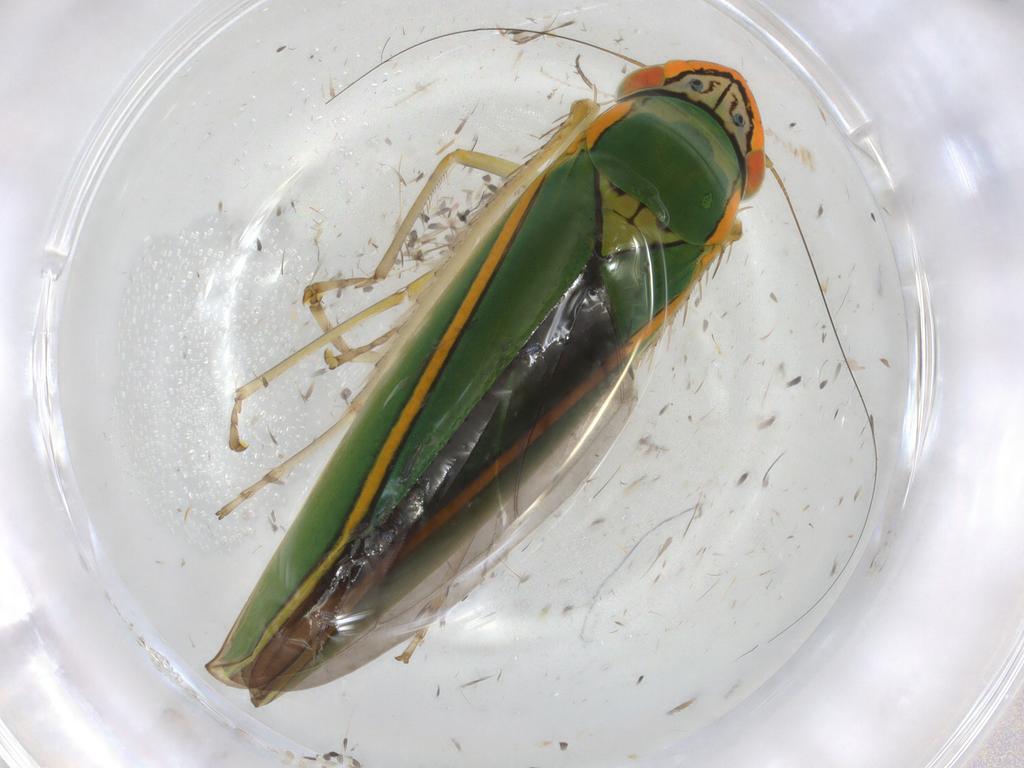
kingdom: Animalia
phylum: Arthropoda
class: Insecta
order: Hemiptera
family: Cicadellidae
